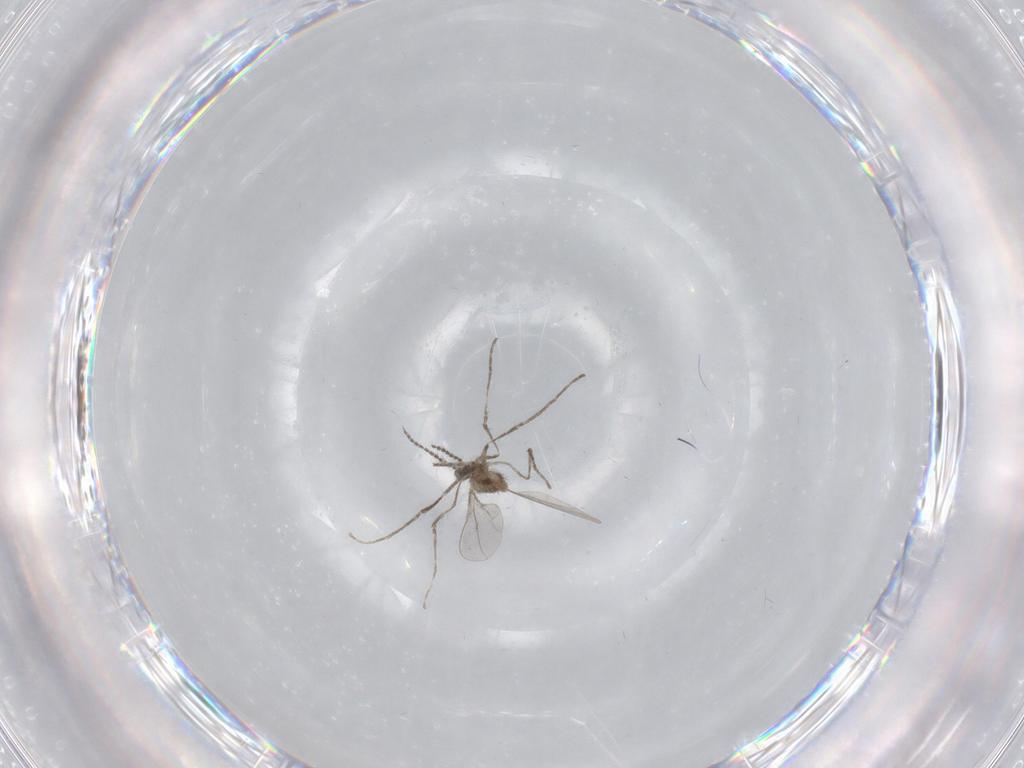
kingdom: Animalia
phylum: Arthropoda
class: Insecta
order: Diptera
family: Cecidomyiidae
